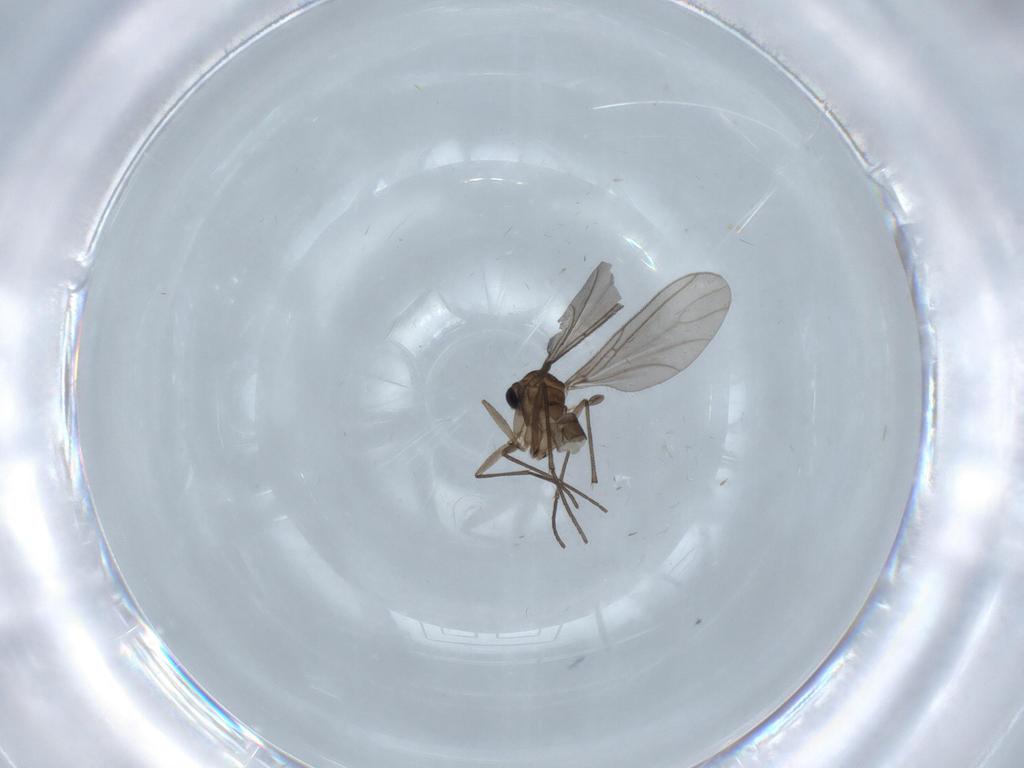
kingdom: Animalia
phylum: Arthropoda
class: Insecta
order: Diptera
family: Sciaridae
